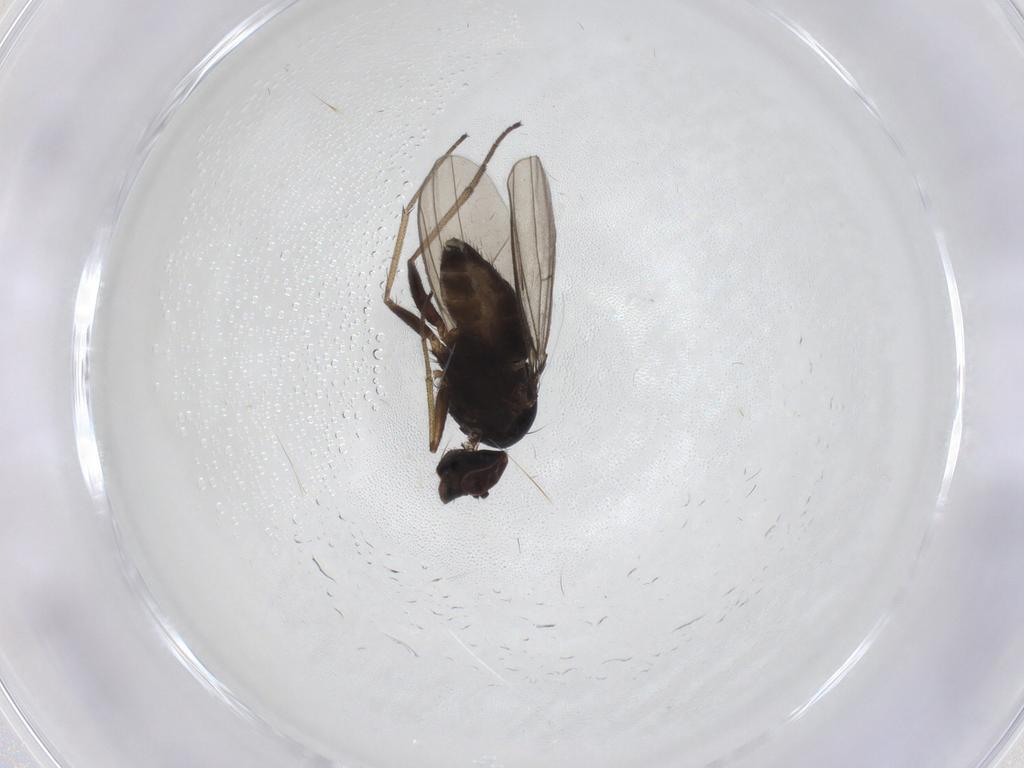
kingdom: Animalia
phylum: Arthropoda
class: Insecta
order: Diptera
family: Dolichopodidae
